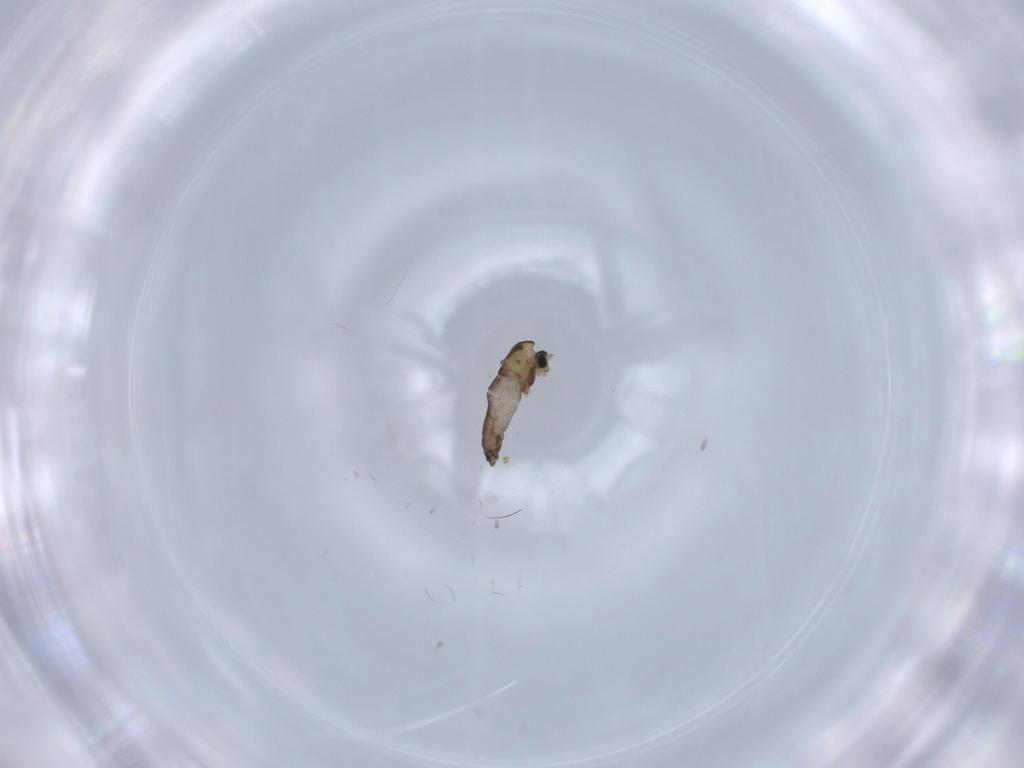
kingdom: Animalia
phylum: Arthropoda
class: Insecta
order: Diptera
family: Chironomidae
